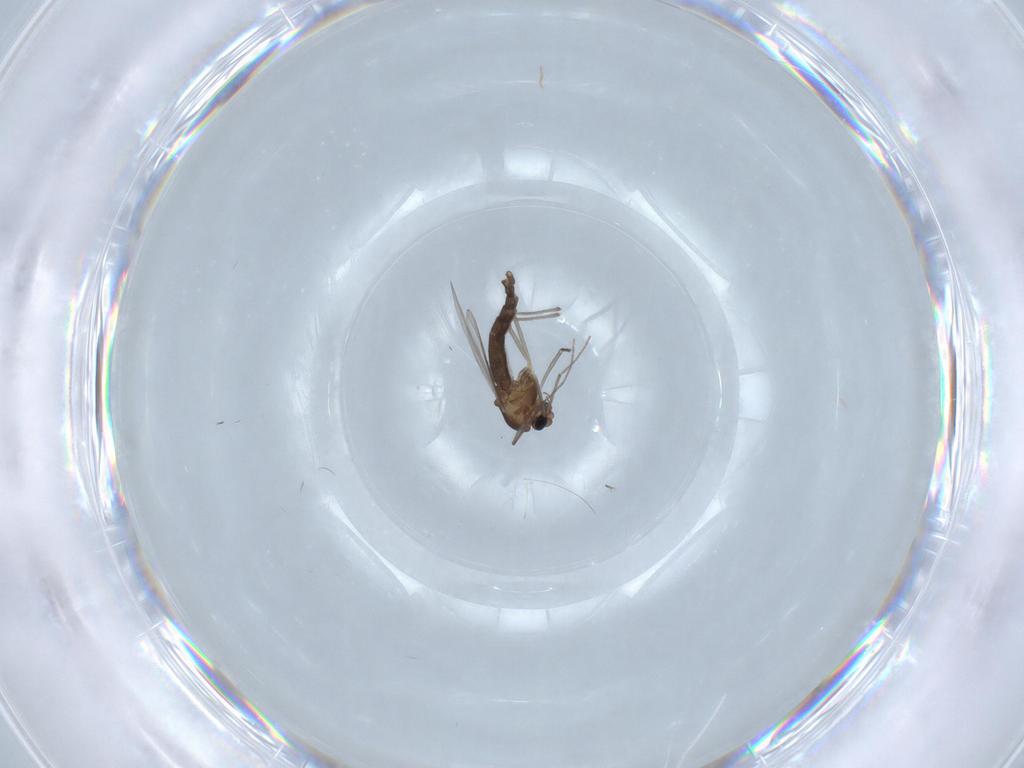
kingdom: Animalia
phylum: Arthropoda
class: Insecta
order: Diptera
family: Chironomidae
